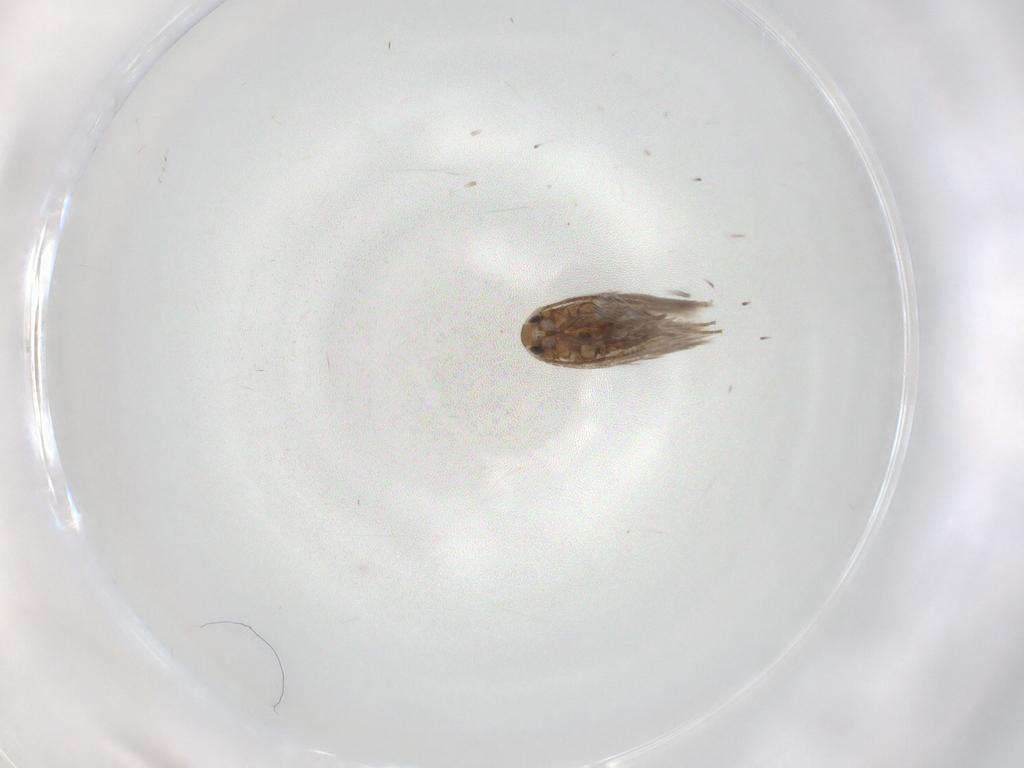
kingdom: Animalia
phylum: Arthropoda
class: Insecta
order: Lepidoptera
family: Nymphalidae
